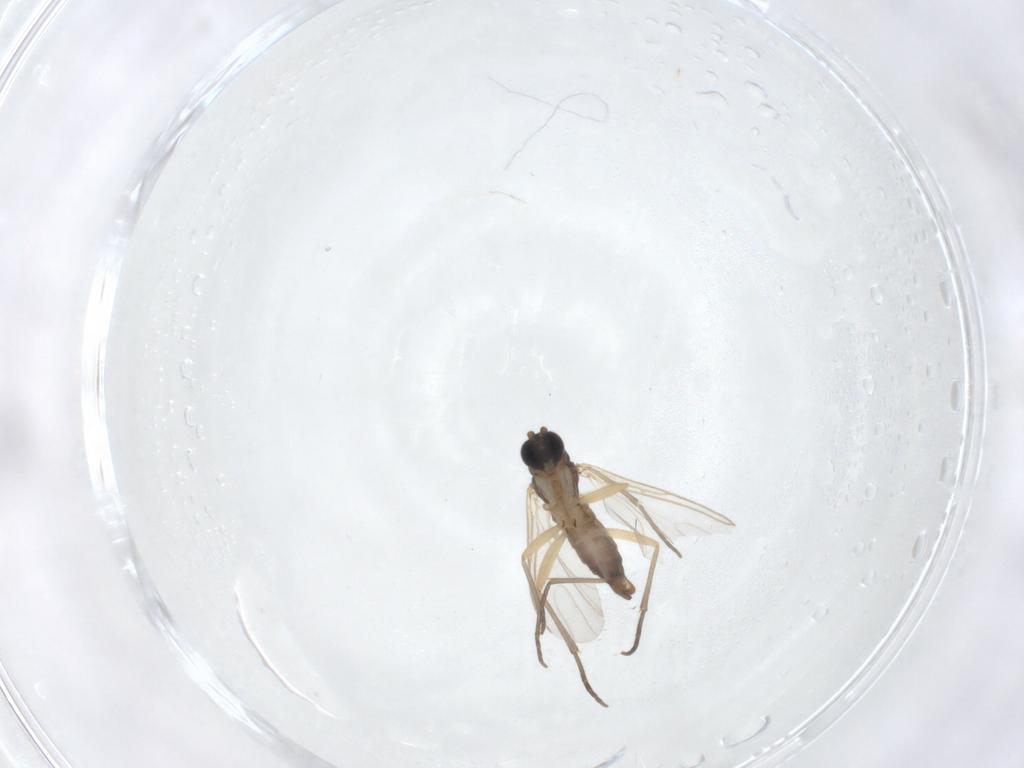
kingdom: Animalia
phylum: Arthropoda
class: Insecta
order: Diptera
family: Sciaridae
